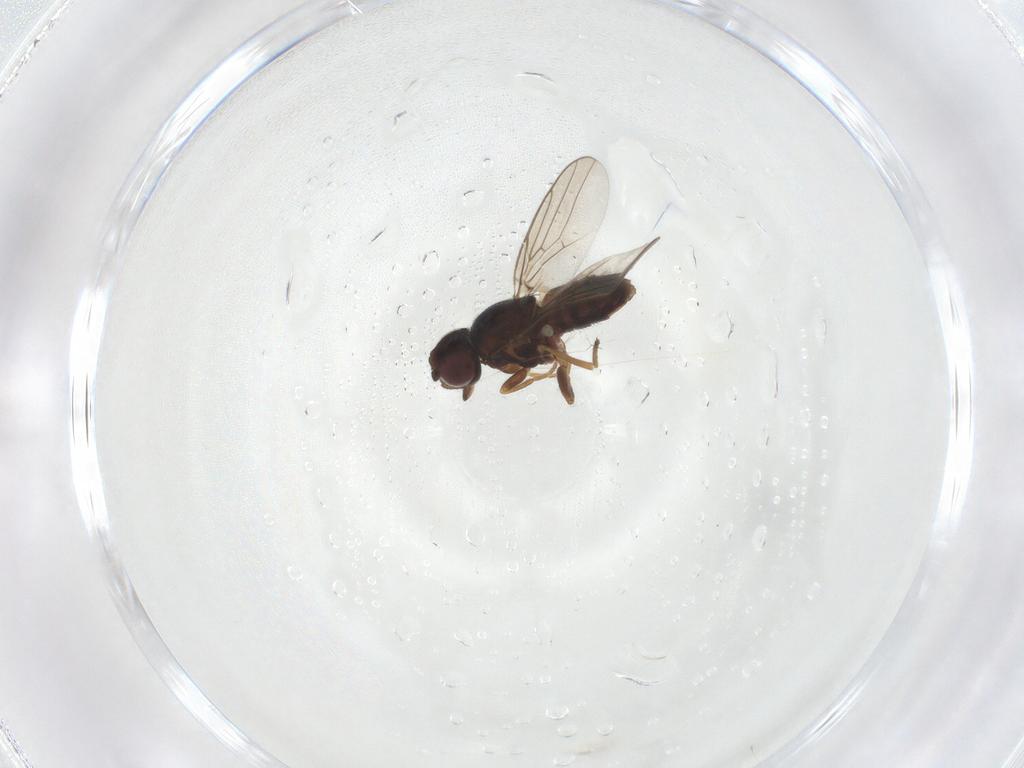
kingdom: Animalia
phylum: Arthropoda
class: Insecta
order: Diptera
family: Chloropidae
